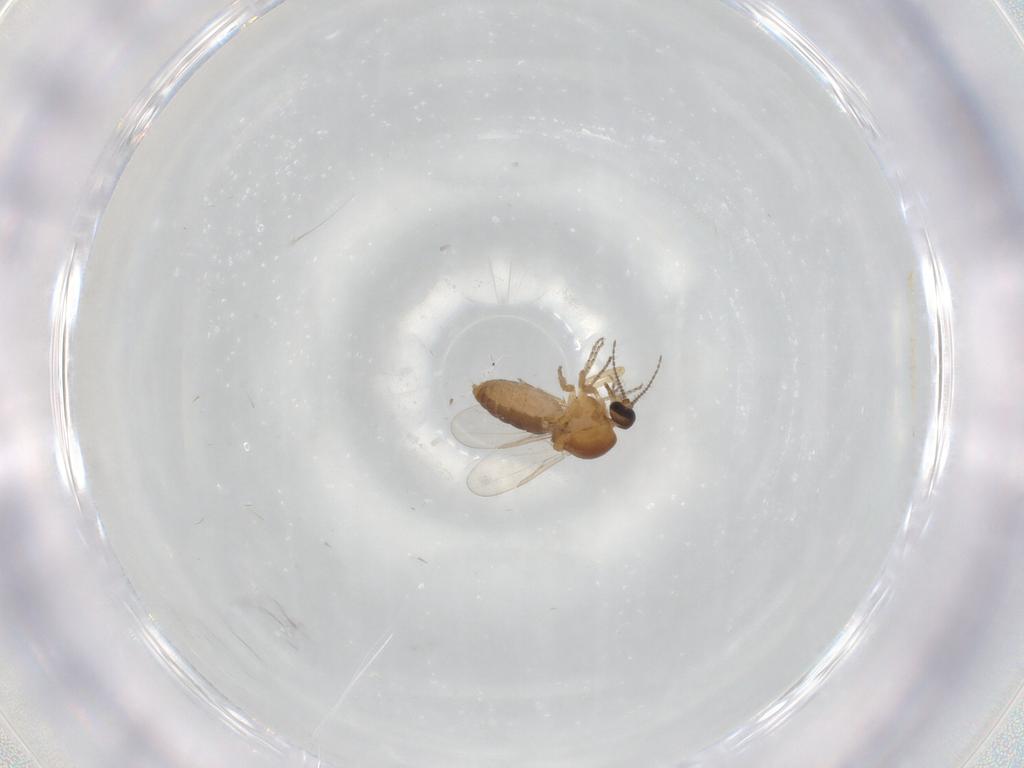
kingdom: Animalia
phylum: Arthropoda
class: Insecta
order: Diptera
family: Ceratopogonidae
